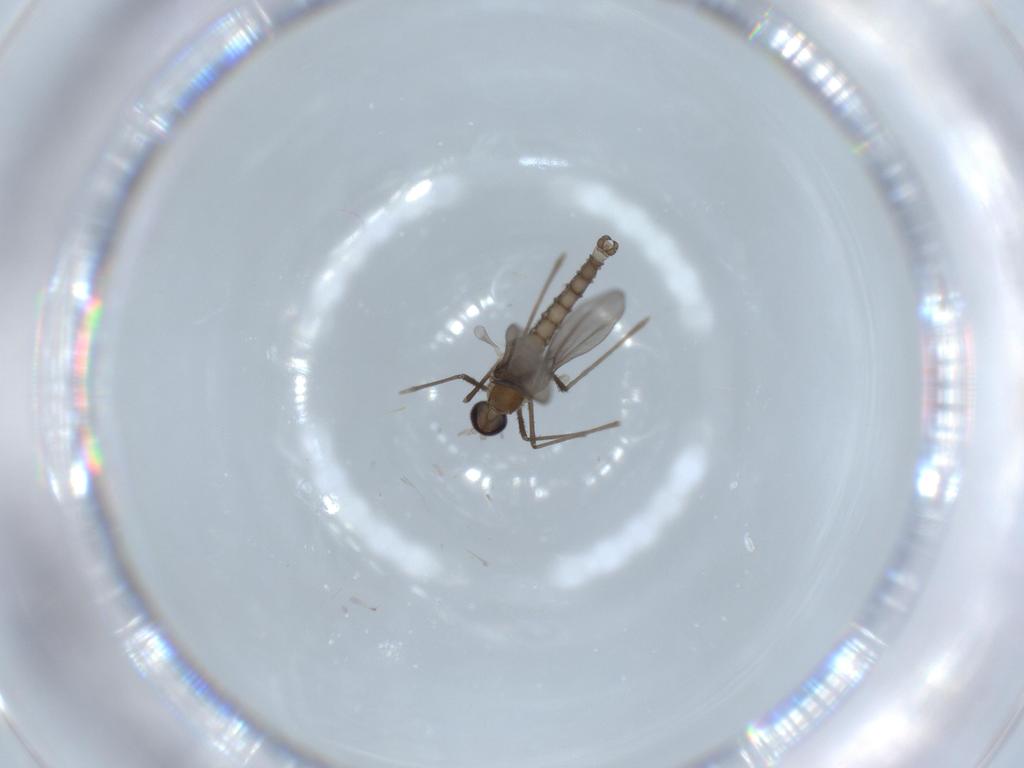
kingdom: Animalia
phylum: Arthropoda
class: Insecta
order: Diptera
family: Cecidomyiidae
